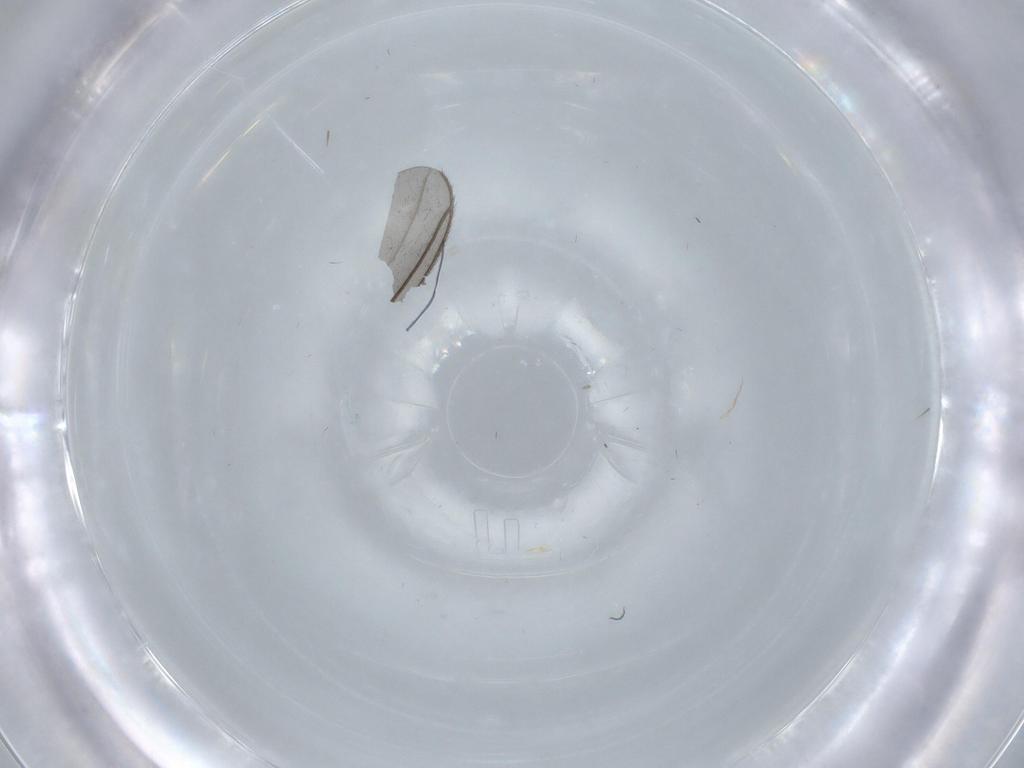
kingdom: Animalia
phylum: Arthropoda
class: Insecta
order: Diptera
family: Sciaridae
